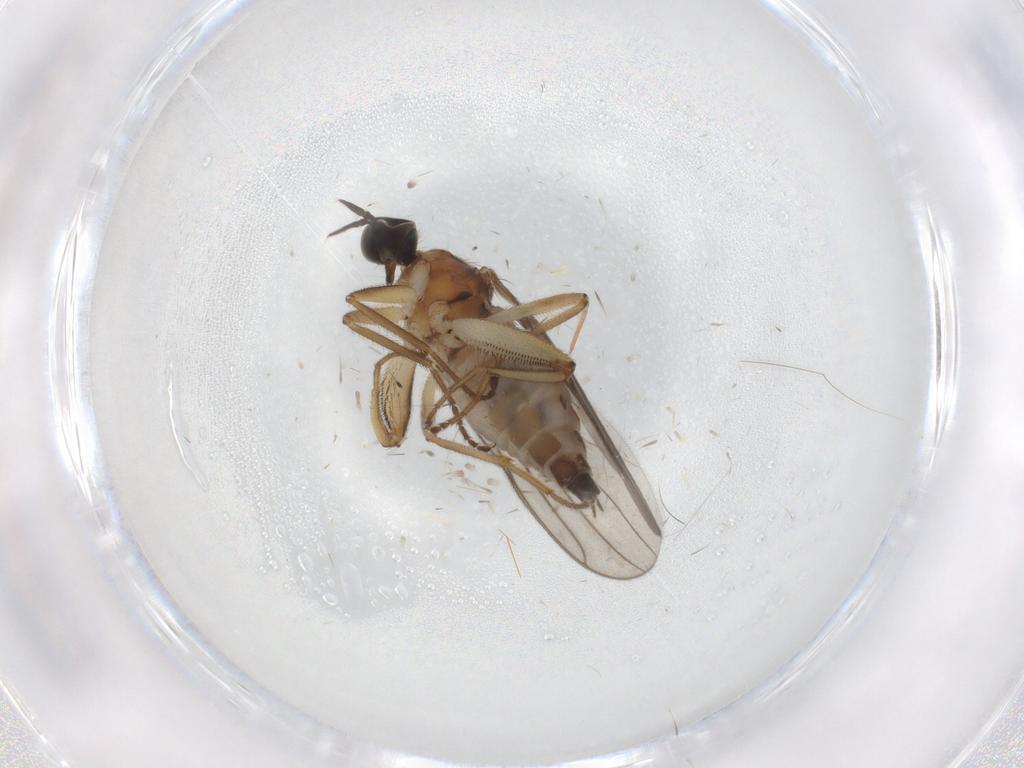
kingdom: Animalia
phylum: Arthropoda
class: Insecta
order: Diptera
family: Hybotidae
